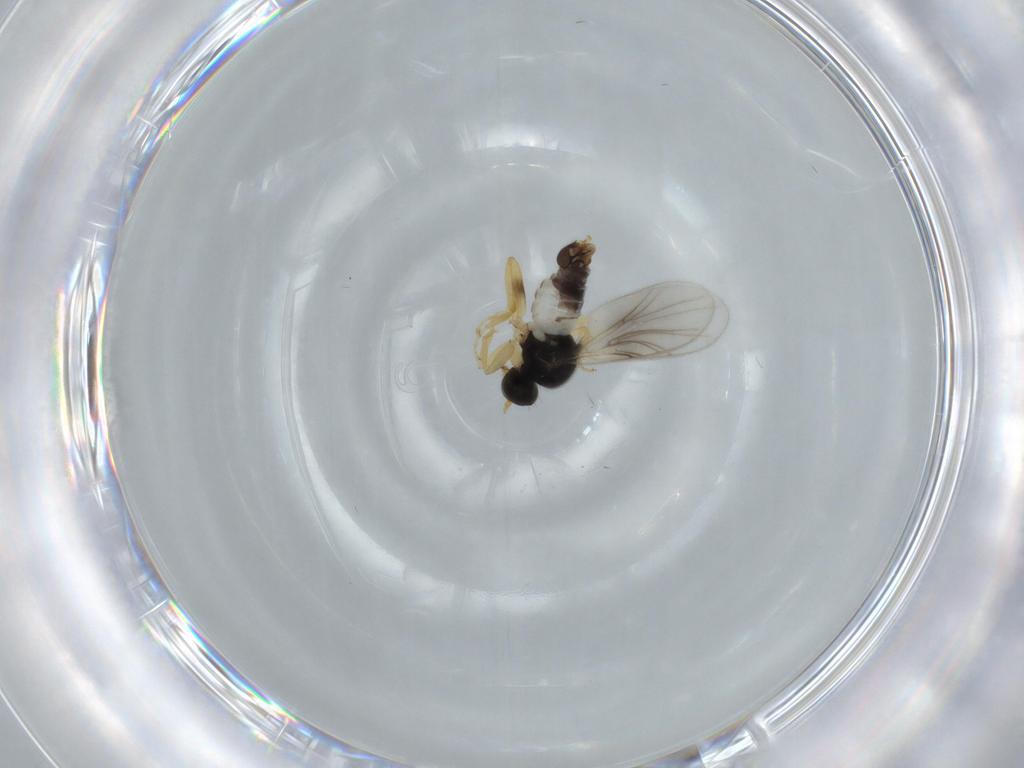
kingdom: Animalia
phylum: Arthropoda
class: Insecta
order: Diptera
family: Hybotidae
